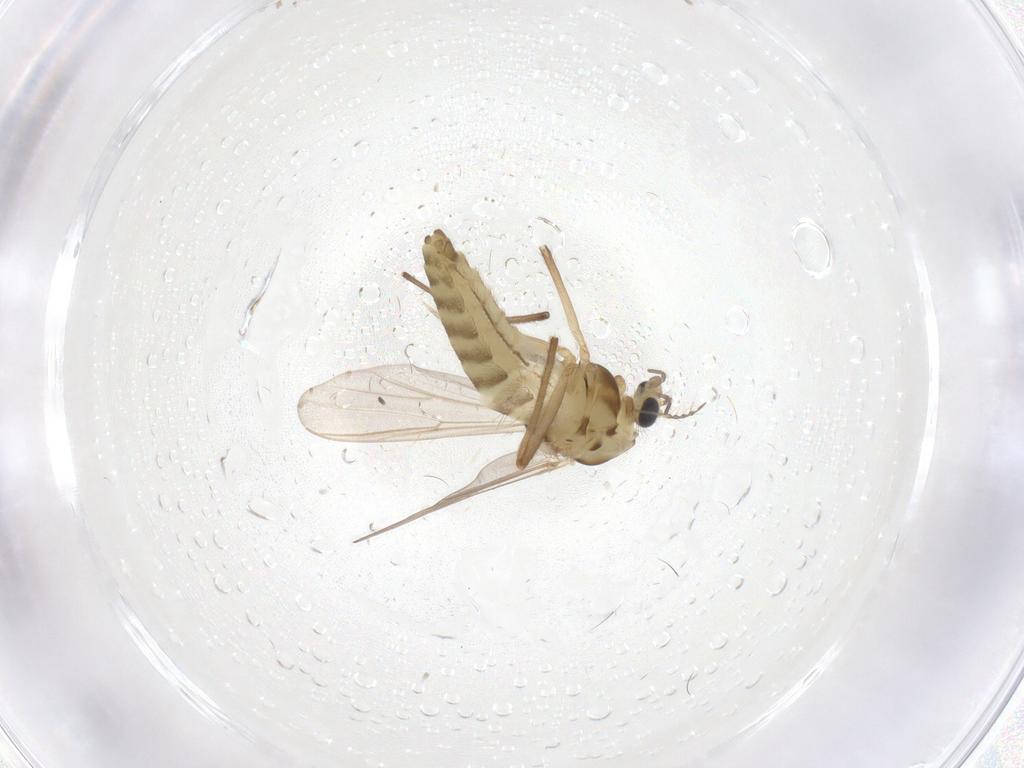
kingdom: Animalia
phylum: Arthropoda
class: Insecta
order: Diptera
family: Chironomidae
